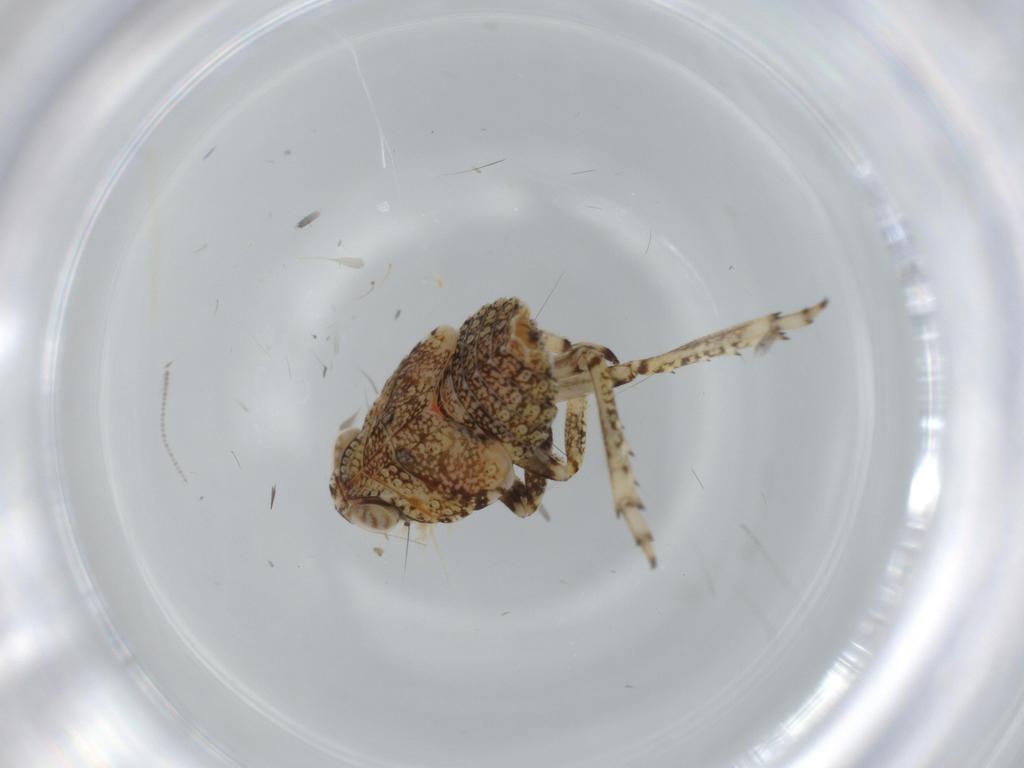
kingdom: Animalia
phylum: Arthropoda
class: Insecta
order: Hemiptera
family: Issidae
